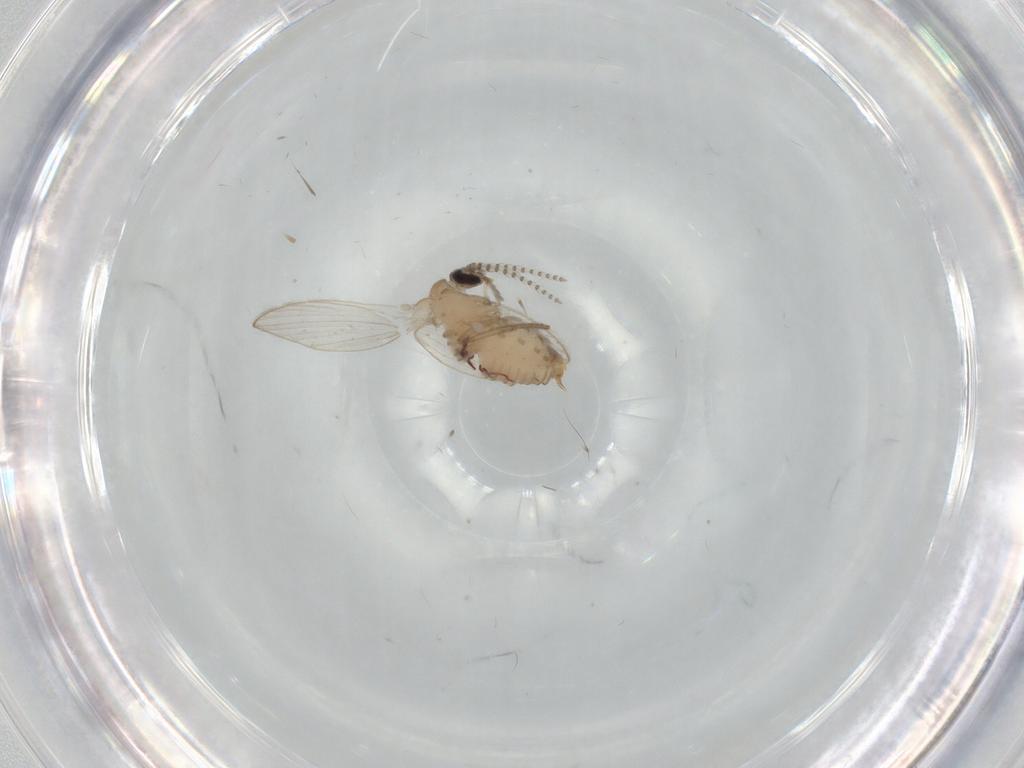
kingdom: Animalia
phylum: Arthropoda
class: Insecta
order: Diptera
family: Psychodidae
